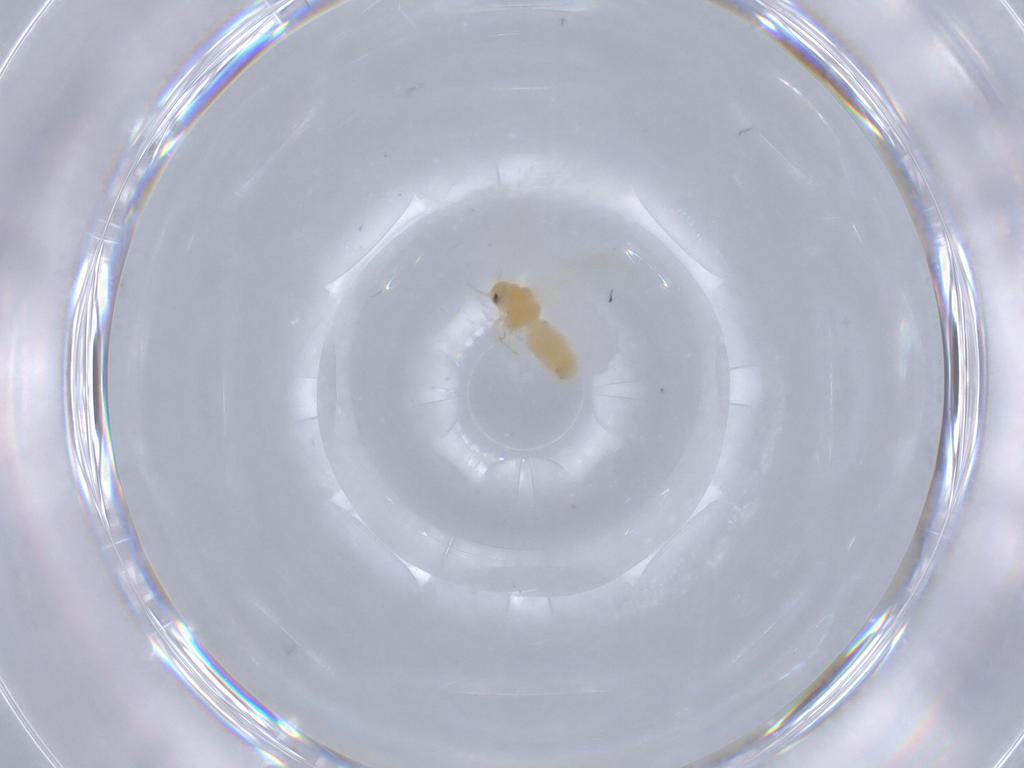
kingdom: Animalia
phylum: Arthropoda
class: Insecta
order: Hemiptera
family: Aleyrodidae
